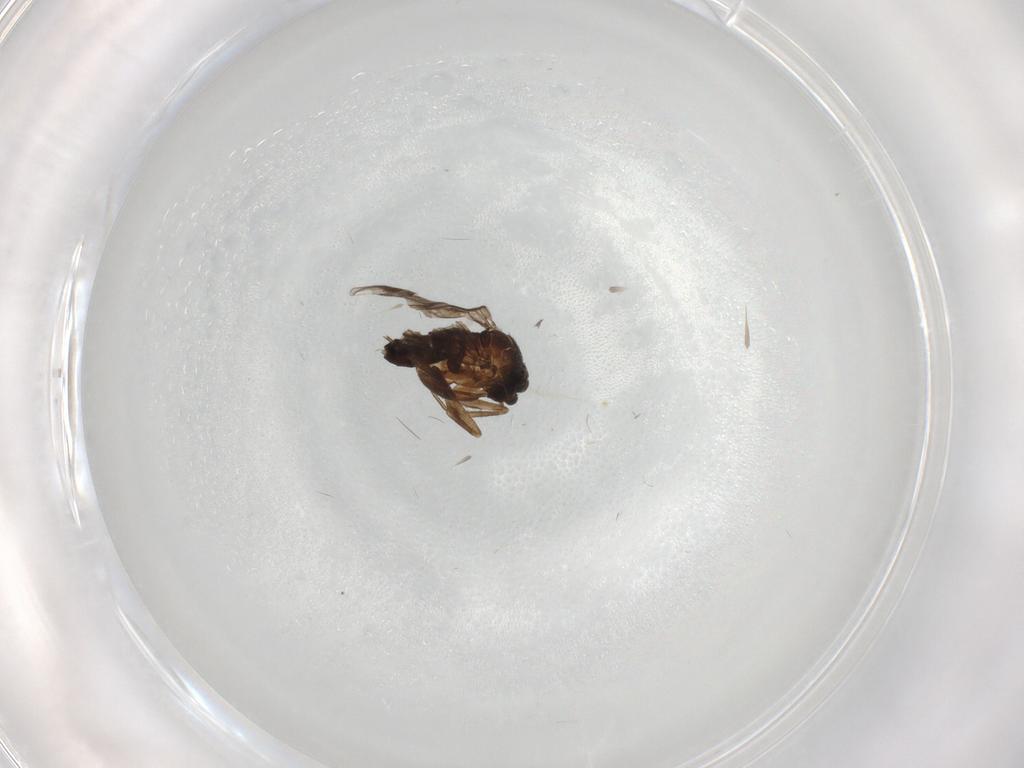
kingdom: Animalia
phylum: Arthropoda
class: Insecta
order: Diptera
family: Phoridae
